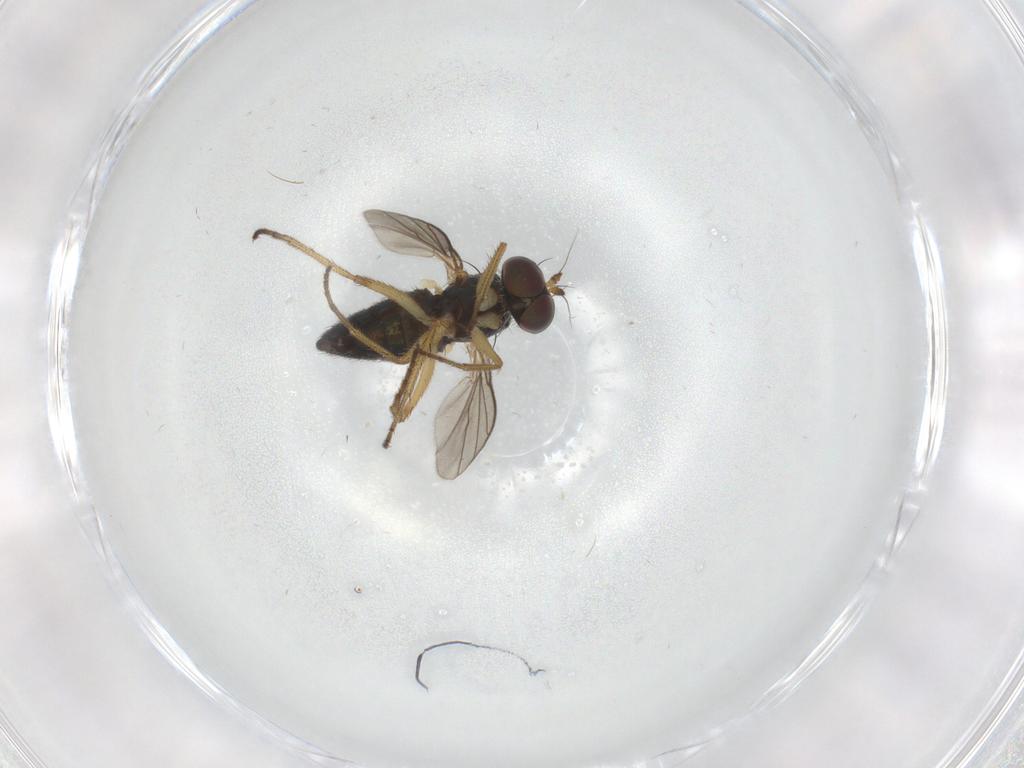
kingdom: Animalia
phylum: Arthropoda
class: Insecta
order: Diptera
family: Dolichopodidae
